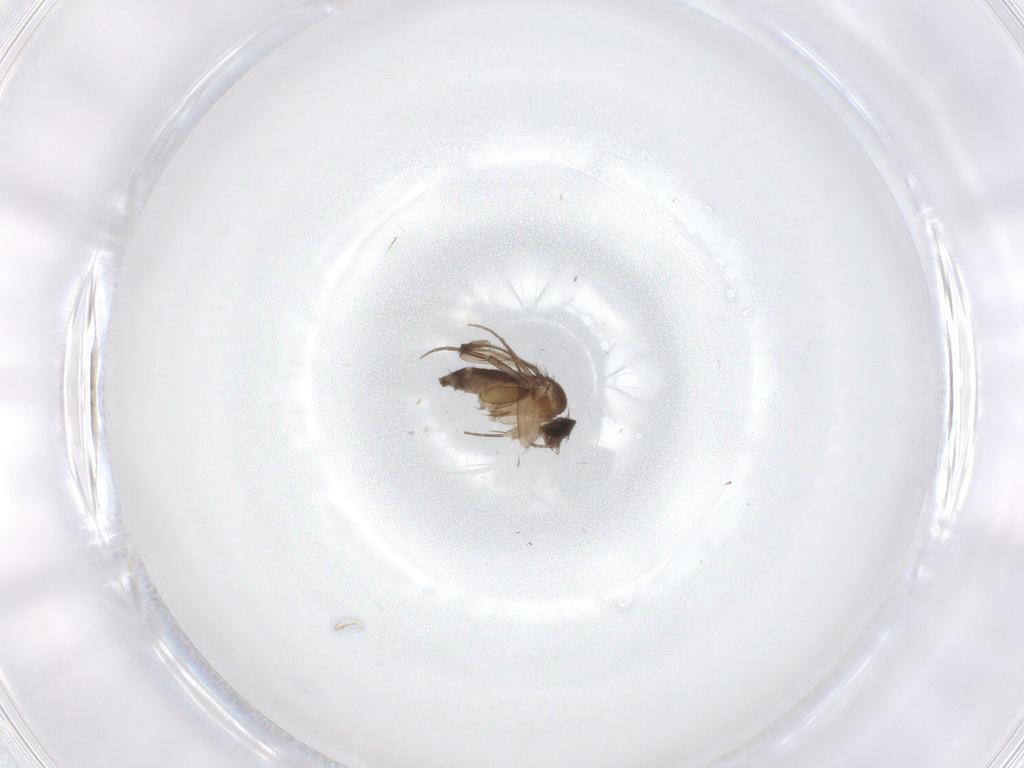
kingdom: Animalia
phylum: Arthropoda
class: Insecta
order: Diptera
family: Phoridae
